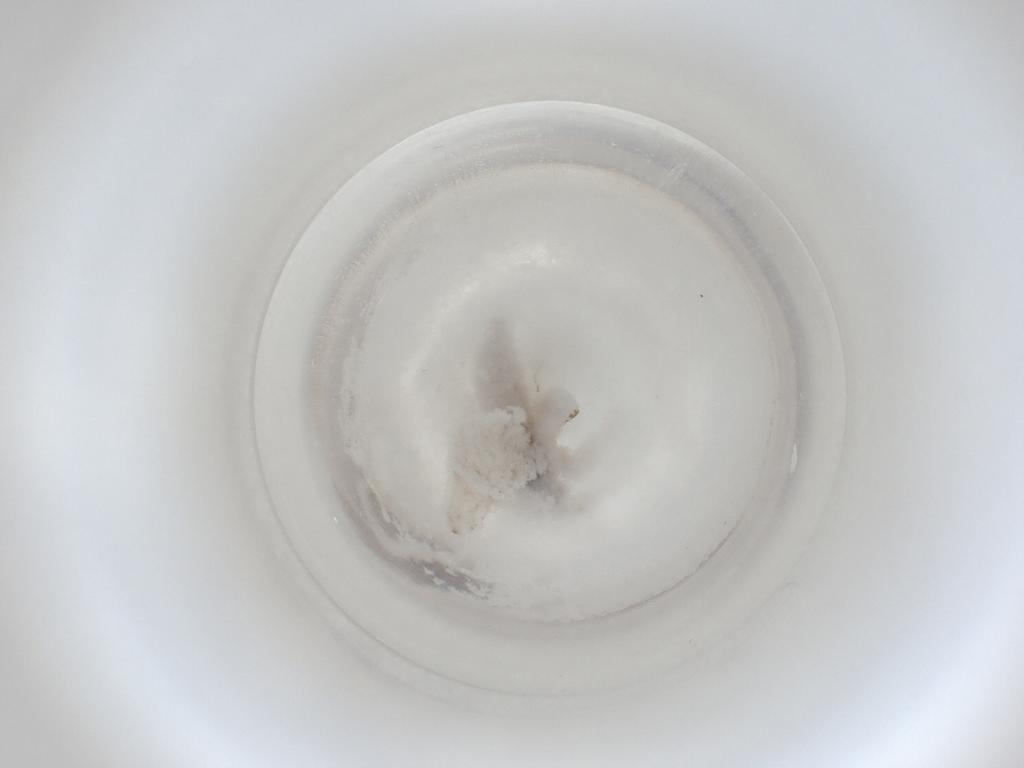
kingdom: Animalia
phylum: Arthropoda
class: Insecta
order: Diptera
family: Cecidomyiidae
